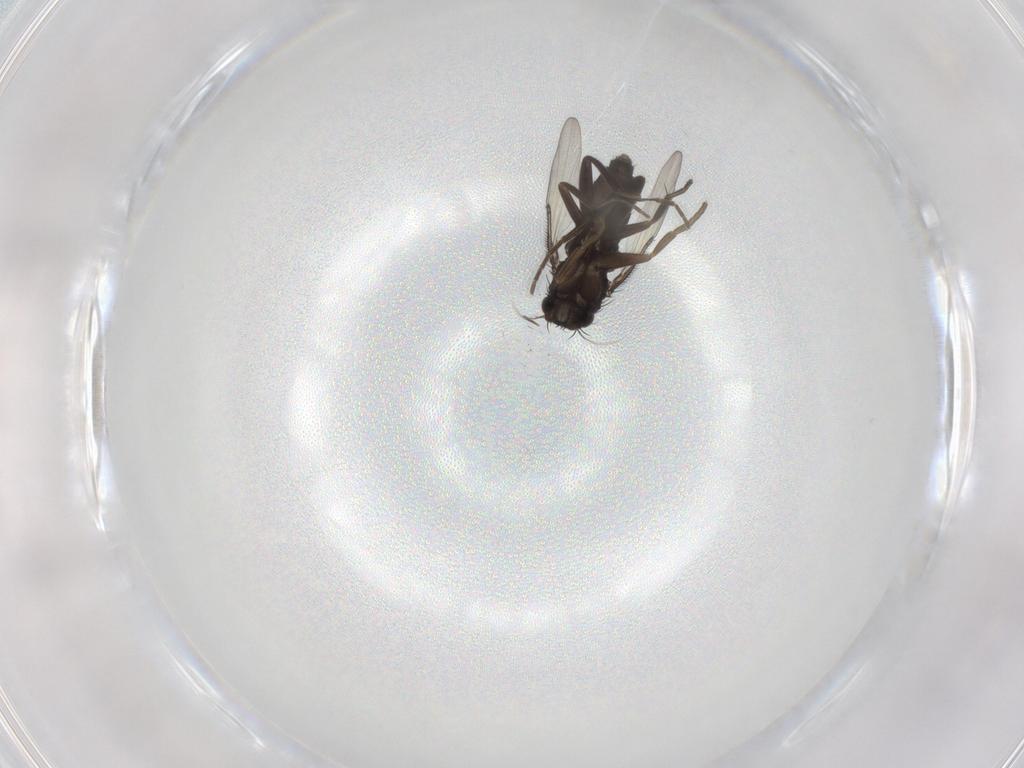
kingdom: Animalia
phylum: Arthropoda
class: Insecta
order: Diptera
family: Phoridae
